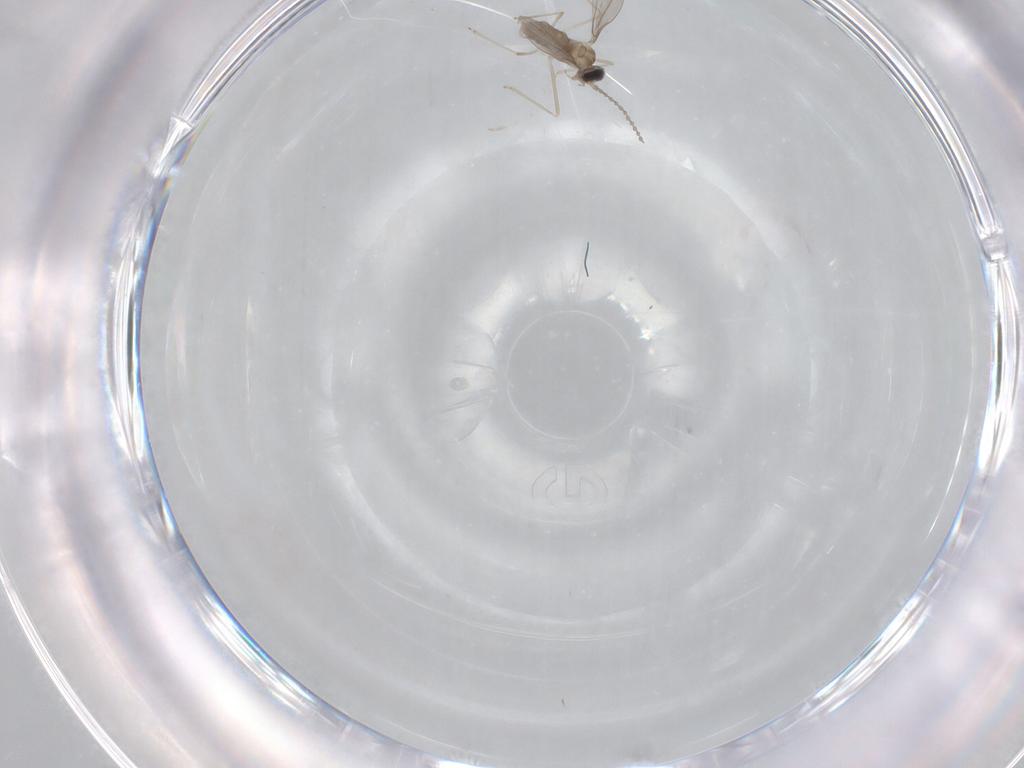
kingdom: Animalia
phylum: Arthropoda
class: Insecta
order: Diptera
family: Cecidomyiidae
